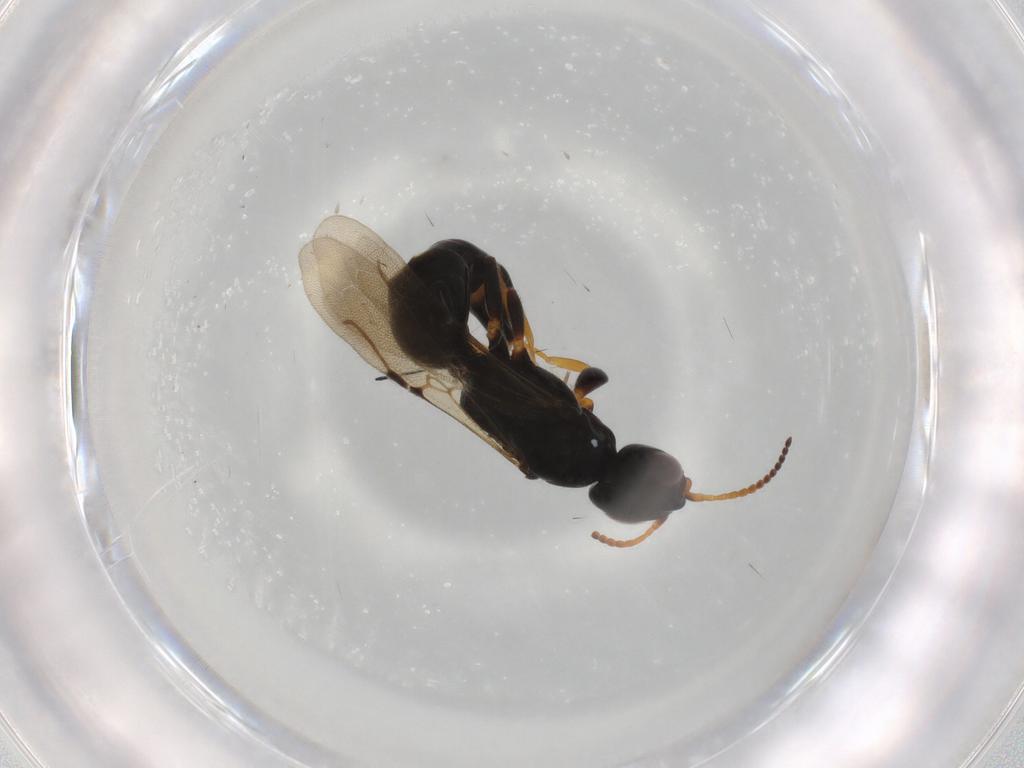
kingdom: Animalia
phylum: Arthropoda
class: Insecta
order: Hymenoptera
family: Bethylidae
